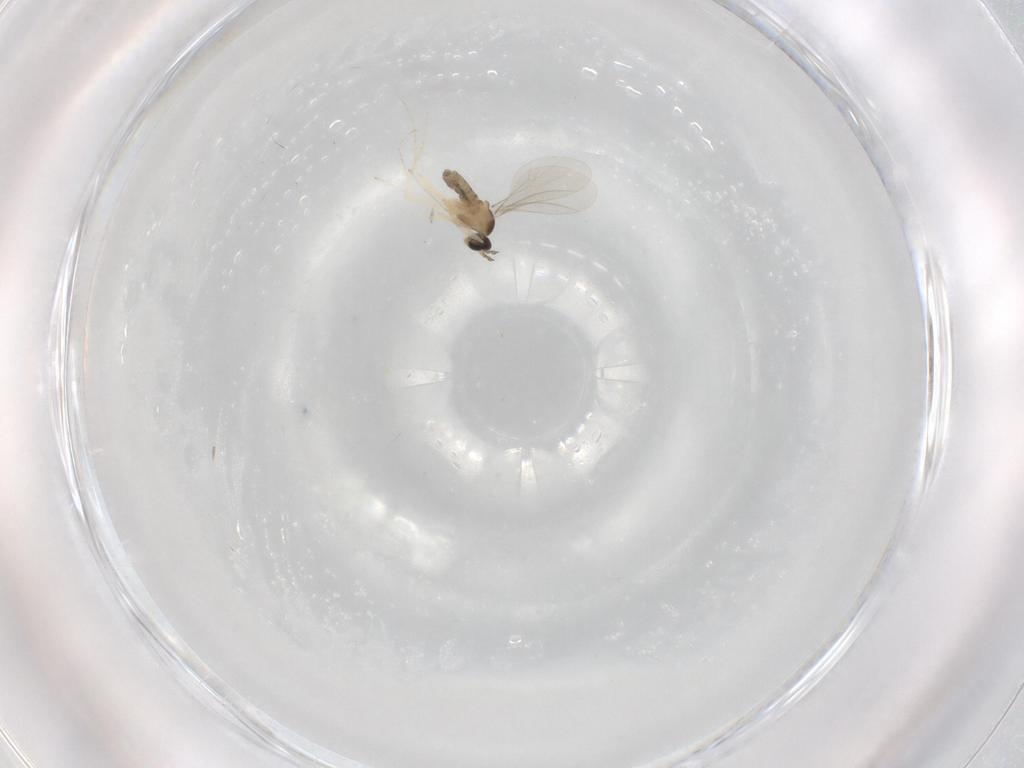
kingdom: Animalia
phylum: Arthropoda
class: Insecta
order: Diptera
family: Cecidomyiidae
